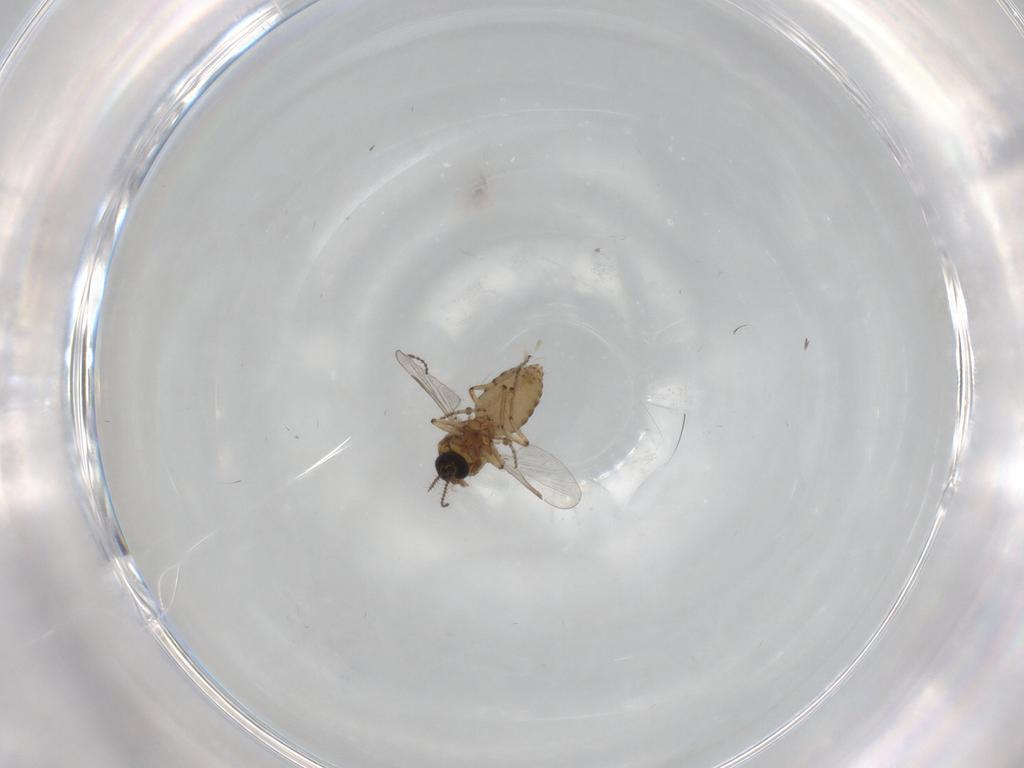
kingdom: Animalia
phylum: Arthropoda
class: Insecta
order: Diptera
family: Ceratopogonidae
